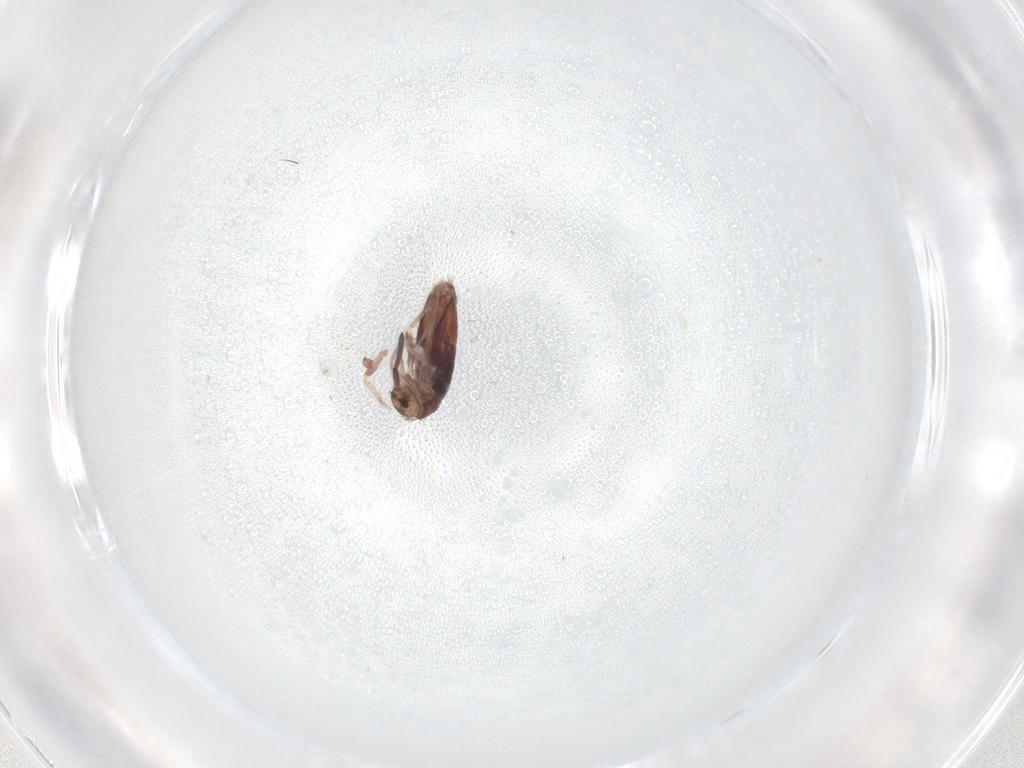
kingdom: Animalia
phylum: Arthropoda
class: Collembola
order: Entomobryomorpha
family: Entomobryidae
